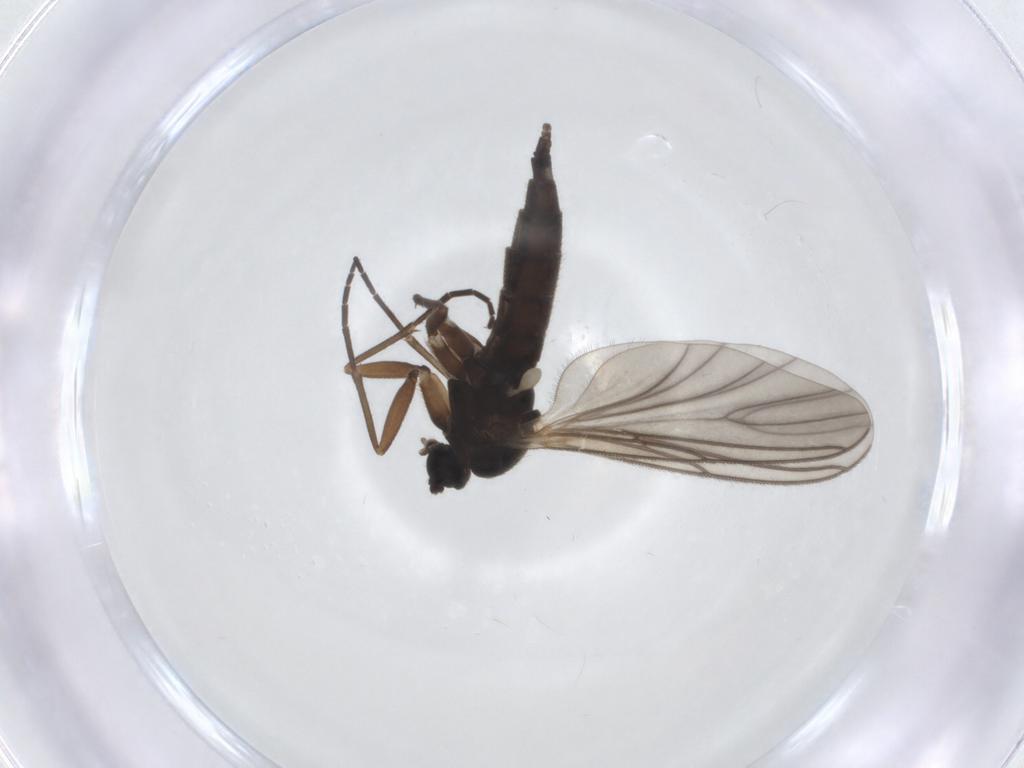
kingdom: Animalia
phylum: Arthropoda
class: Insecta
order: Diptera
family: Sciaridae
